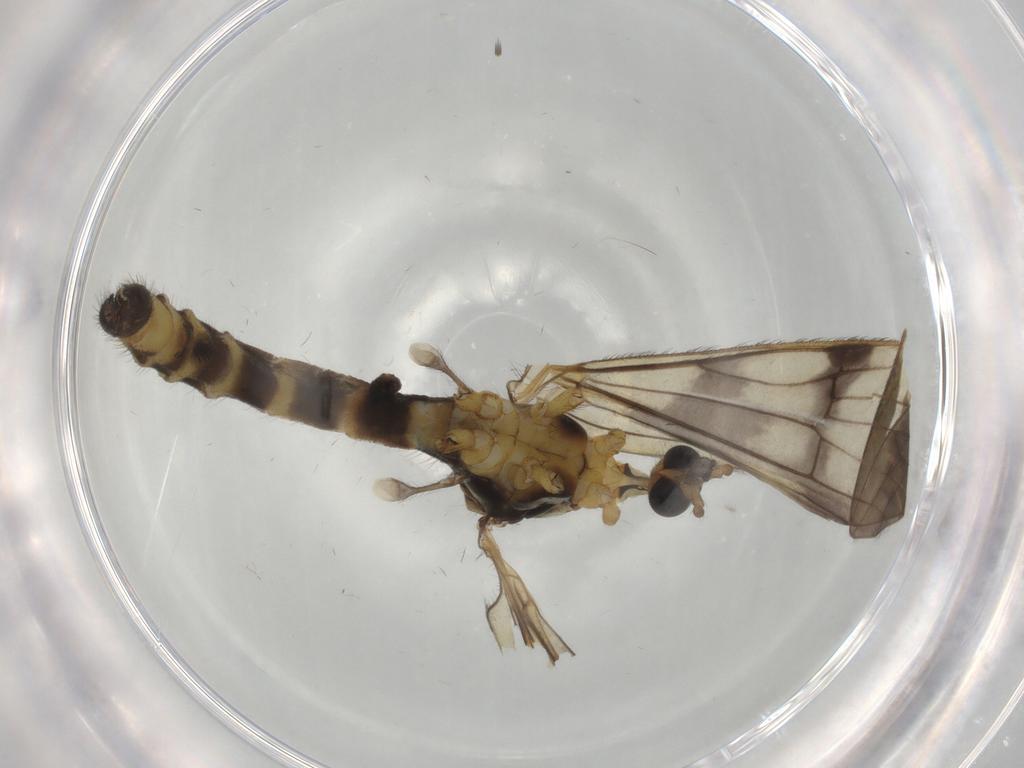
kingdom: Animalia
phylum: Arthropoda
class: Insecta
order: Diptera
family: Limoniidae
